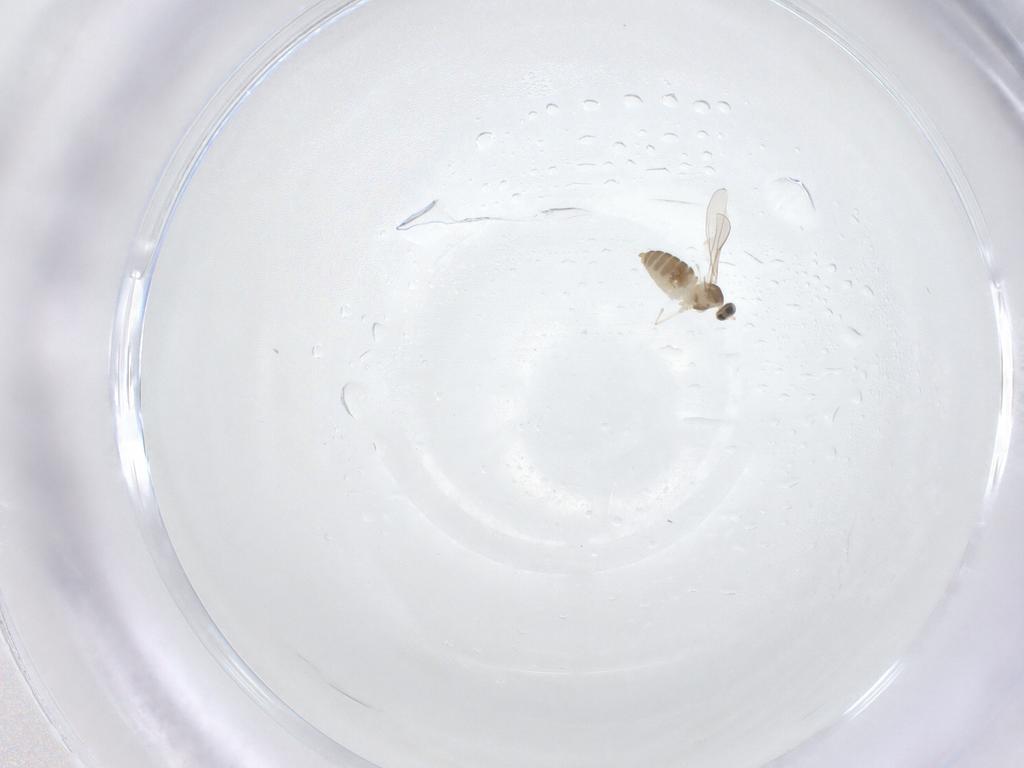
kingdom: Animalia
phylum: Arthropoda
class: Insecta
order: Diptera
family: Cecidomyiidae
